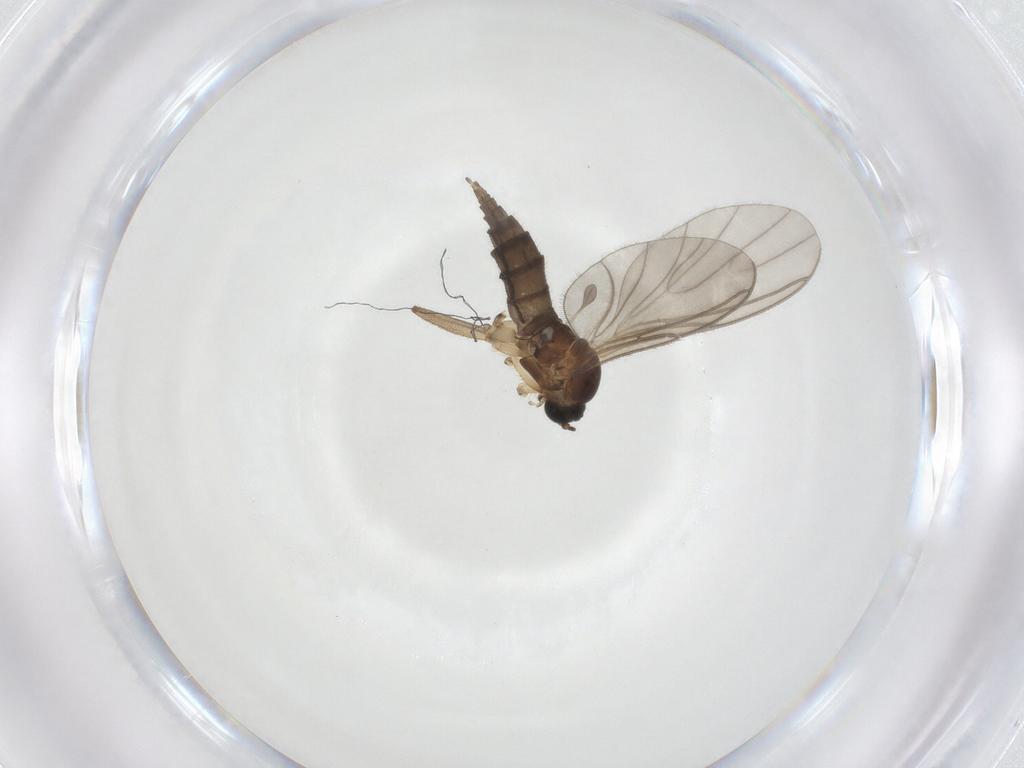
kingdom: Animalia
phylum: Arthropoda
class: Insecta
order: Diptera
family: Sciaridae
